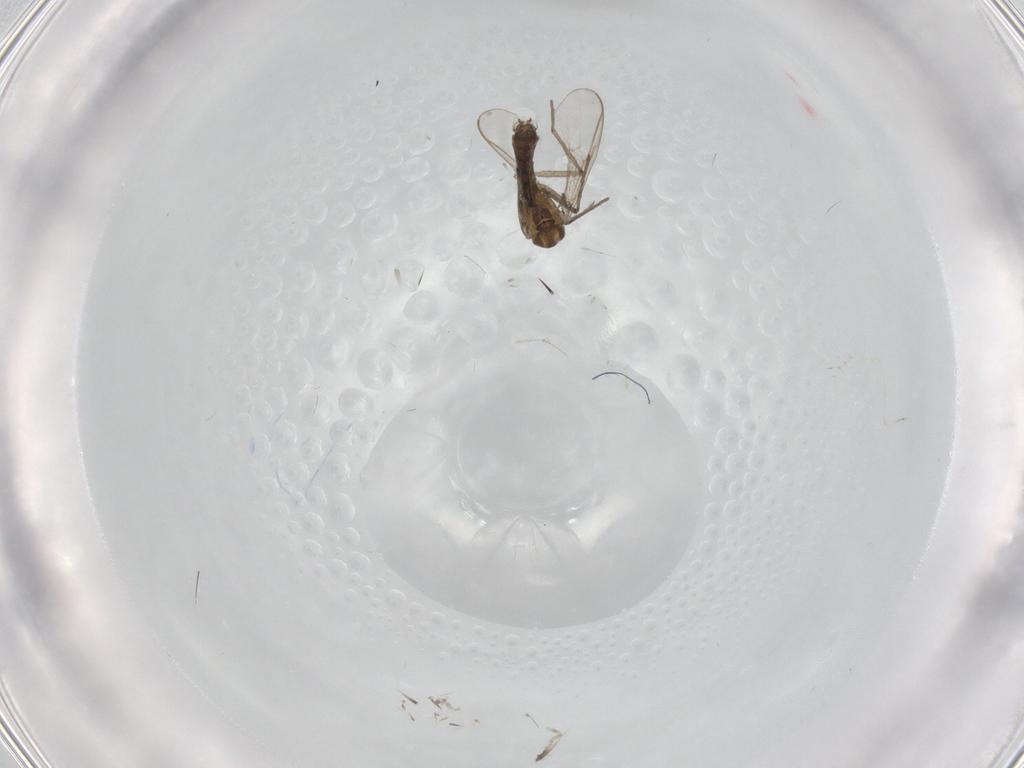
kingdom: Animalia
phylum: Arthropoda
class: Insecta
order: Diptera
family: Chironomidae
